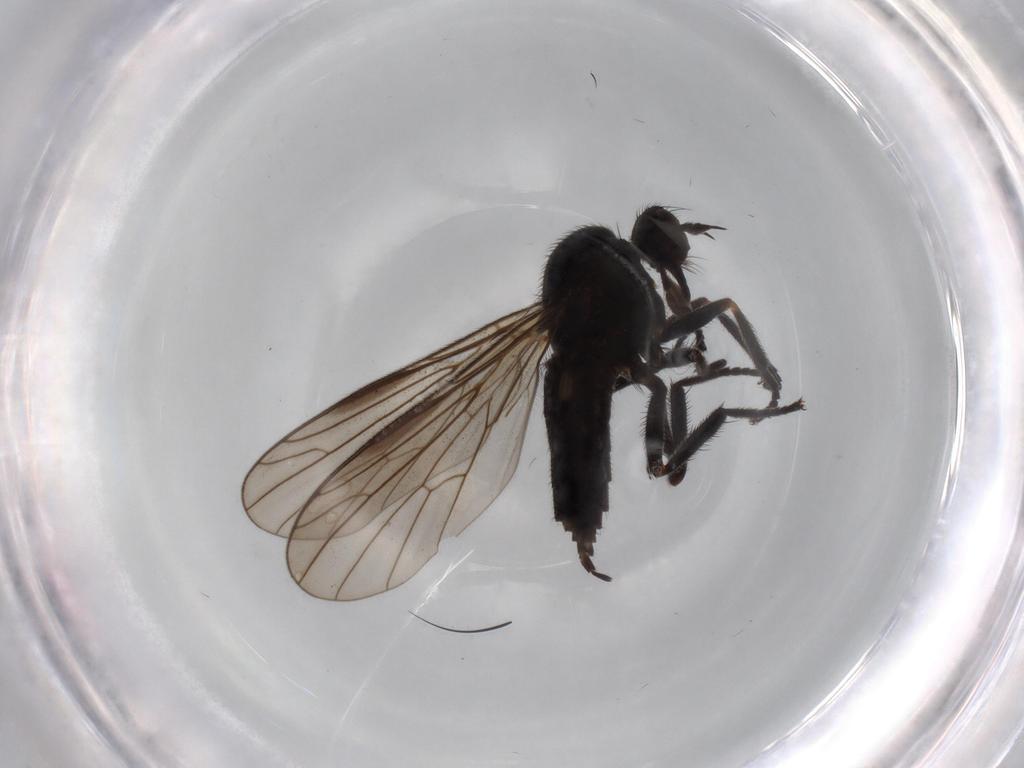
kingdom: Animalia
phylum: Arthropoda
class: Insecta
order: Diptera
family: Empididae
